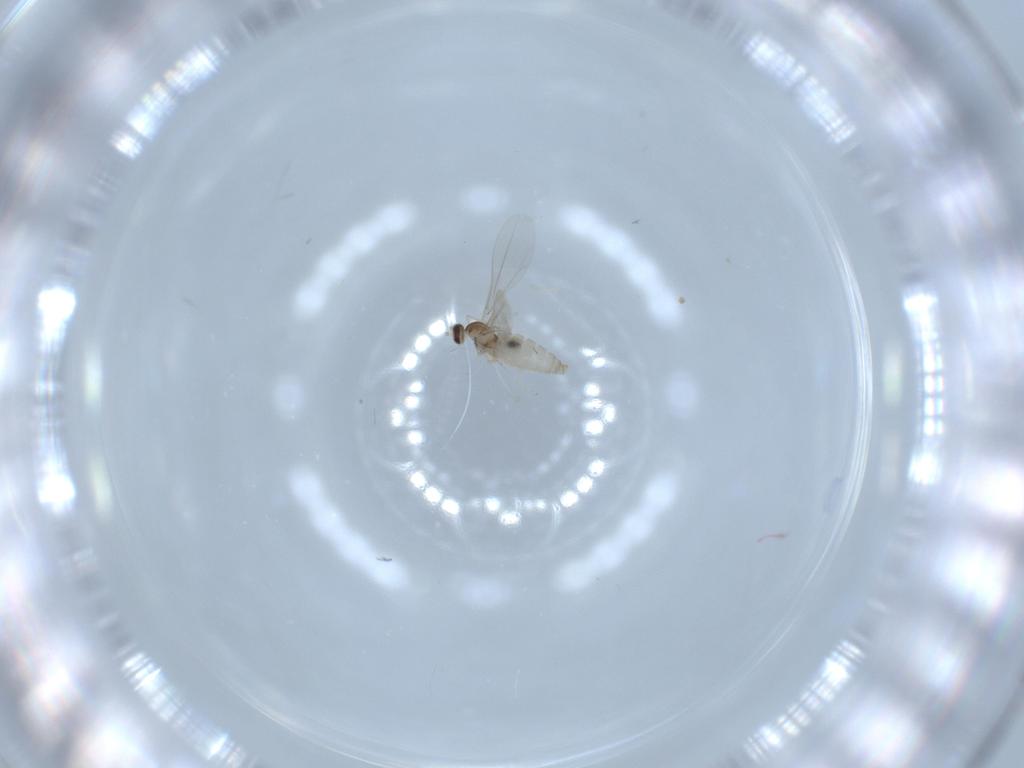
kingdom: Animalia
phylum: Arthropoda
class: Insecta
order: Diptera
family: Cecidomyiidae
